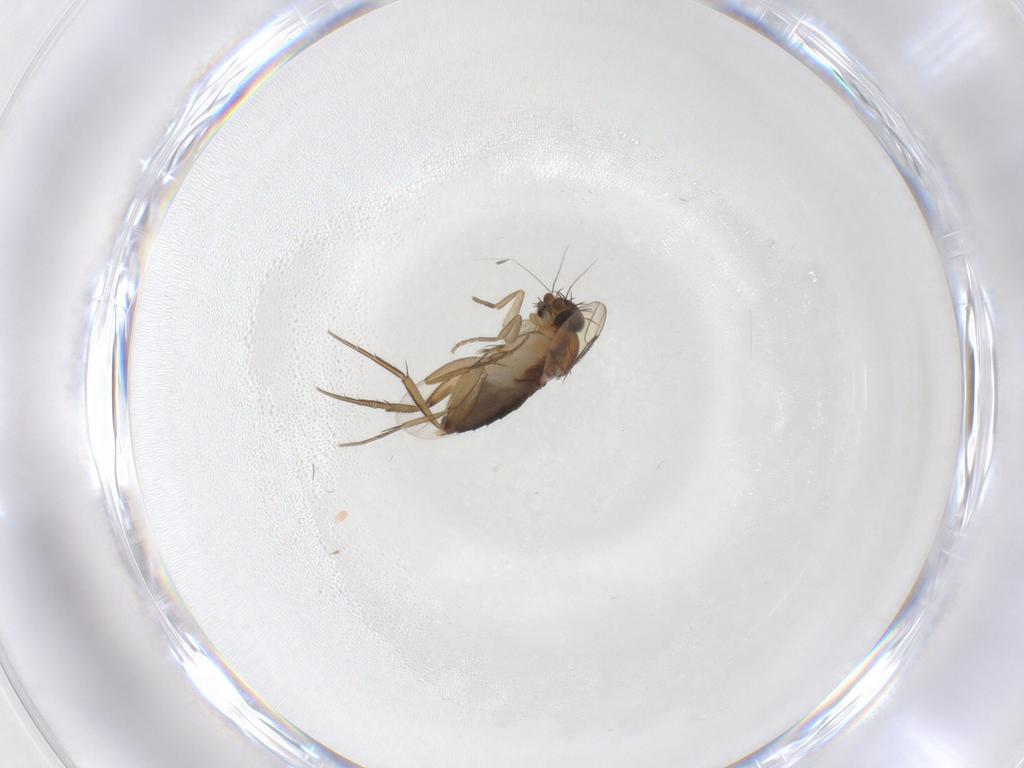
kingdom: Animalia
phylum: Arthropoda
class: Insecta
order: Diptera
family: Phoridae
